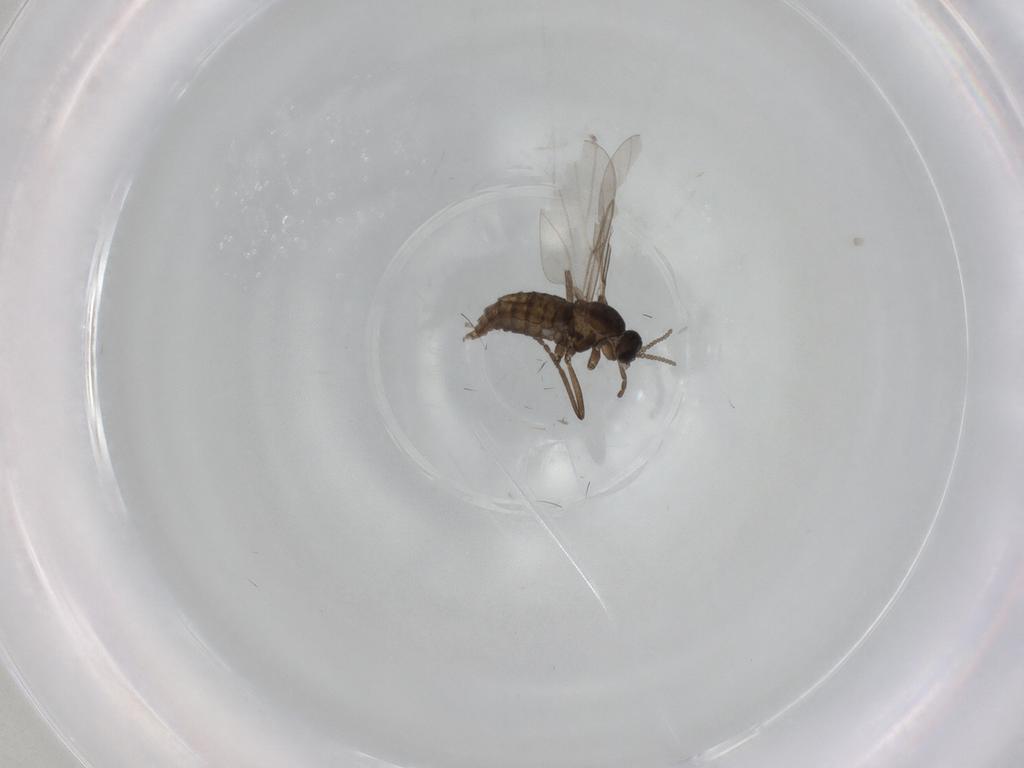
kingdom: Animalia
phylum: Arthropoda
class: Insecta
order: Diptera
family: Cecidomyiidae
